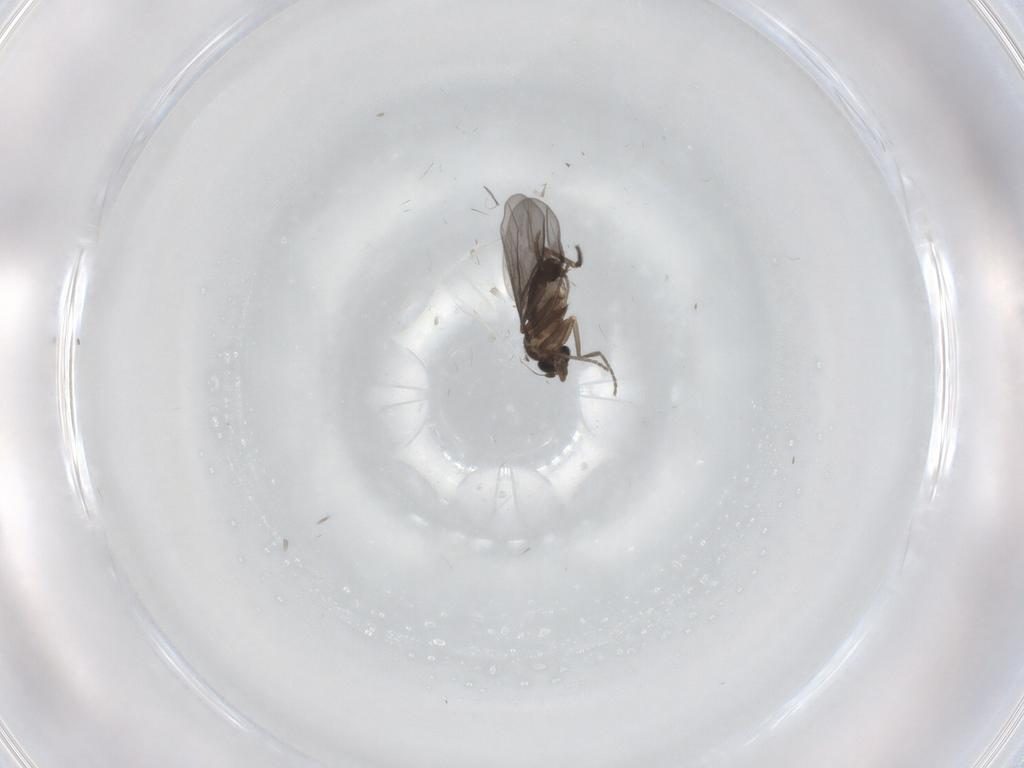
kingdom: Animalia
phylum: Arthropoda
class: Insecta
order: Diptera
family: Phoridae
